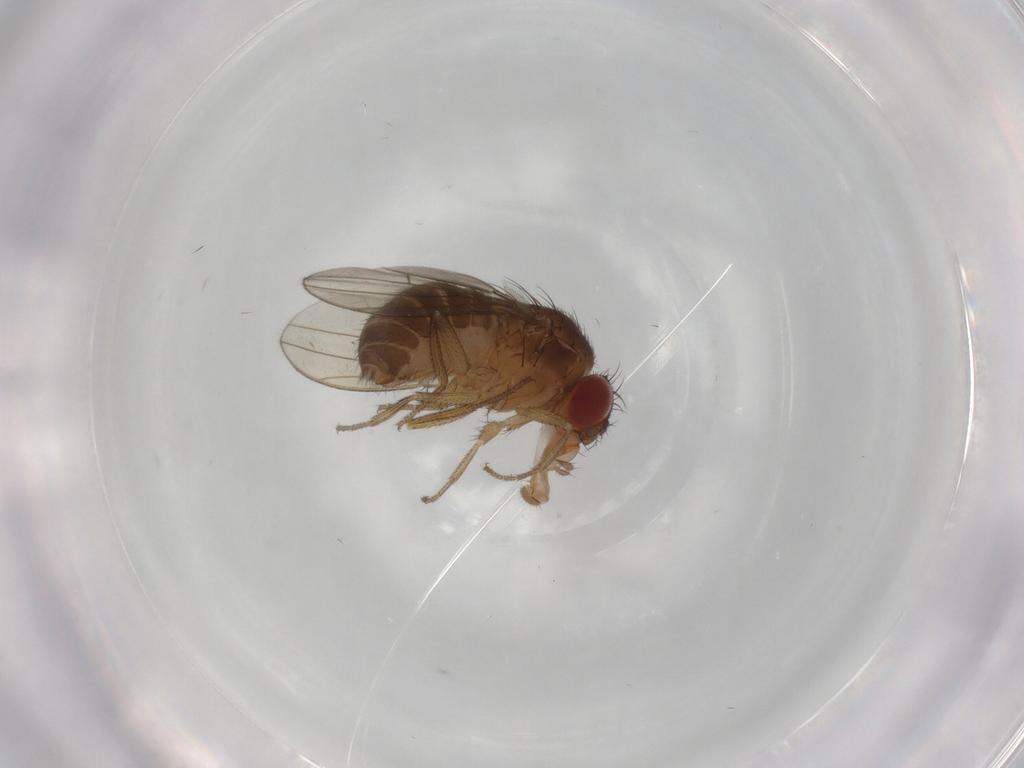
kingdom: Animalia
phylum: Arthropoda
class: Insecta
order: Diptera
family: Drosophilidae
